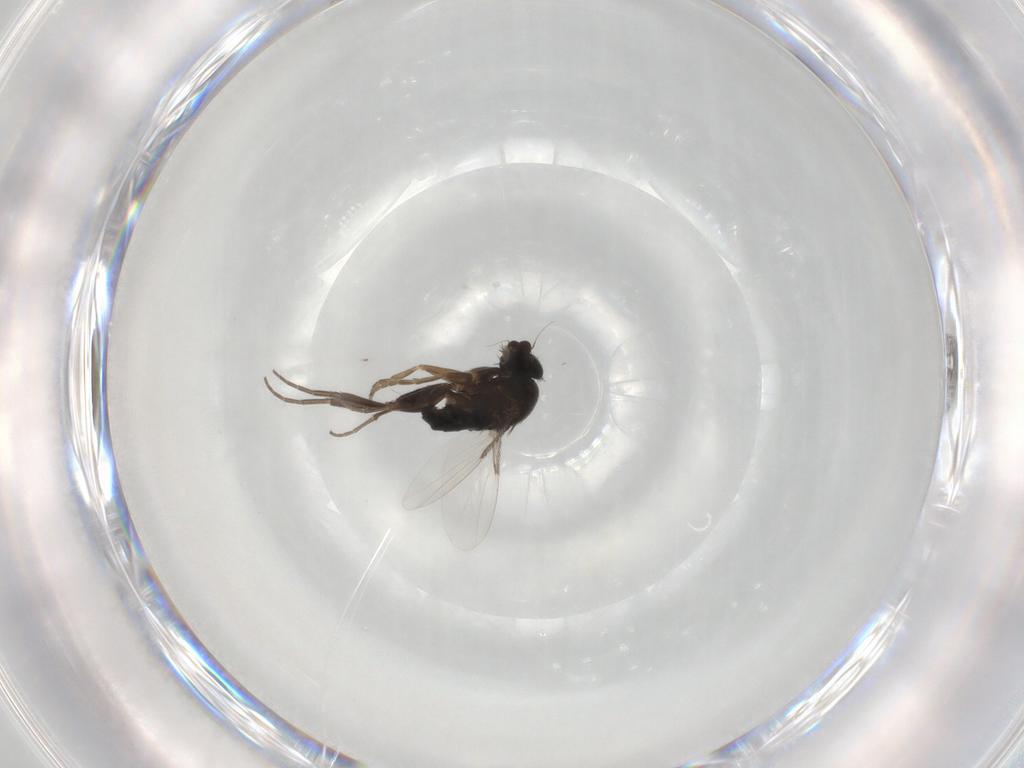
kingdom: Animalia
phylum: Arthropoda
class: Insecta
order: Diptera
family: Phoridae
